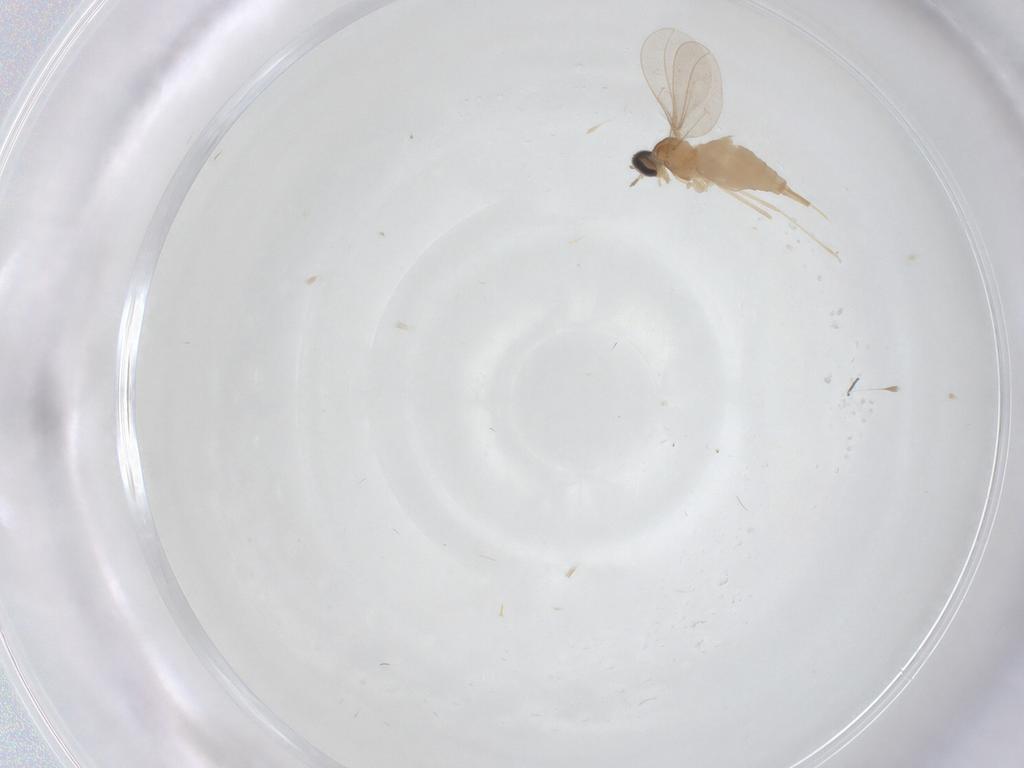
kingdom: Animalia
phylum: Arthropoda
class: Insecta
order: Diptera
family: Cecidomyiidae
